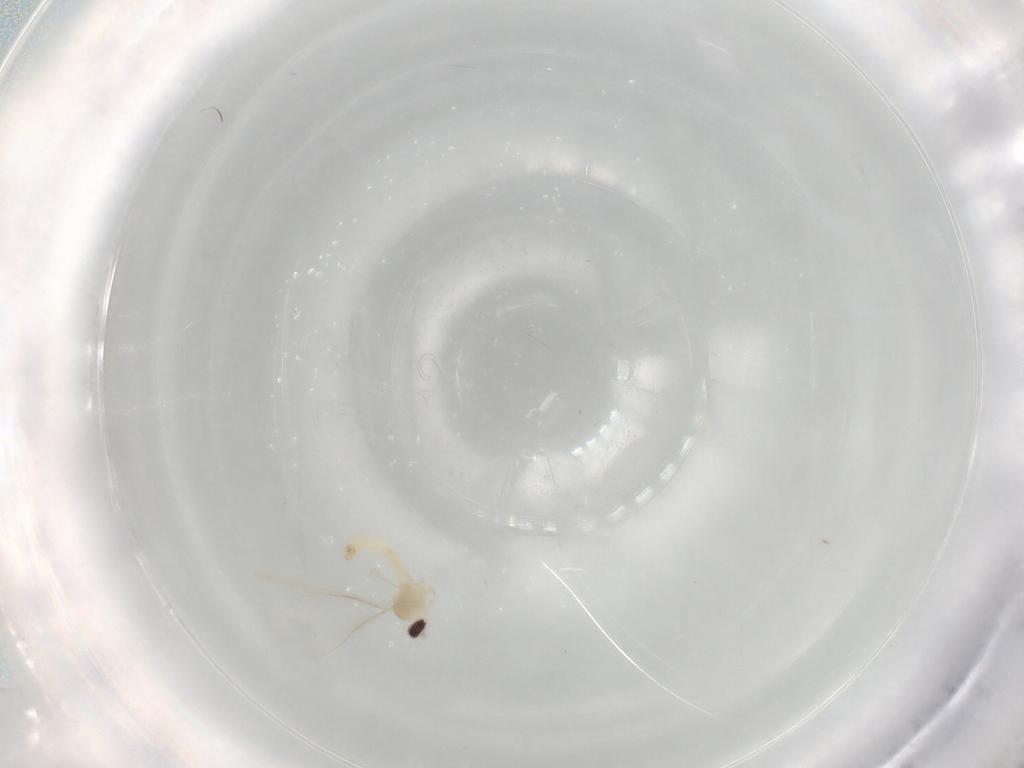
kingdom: Animalia
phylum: Arthropoda
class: Insecta
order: Diptera
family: Cecidomyiidae
